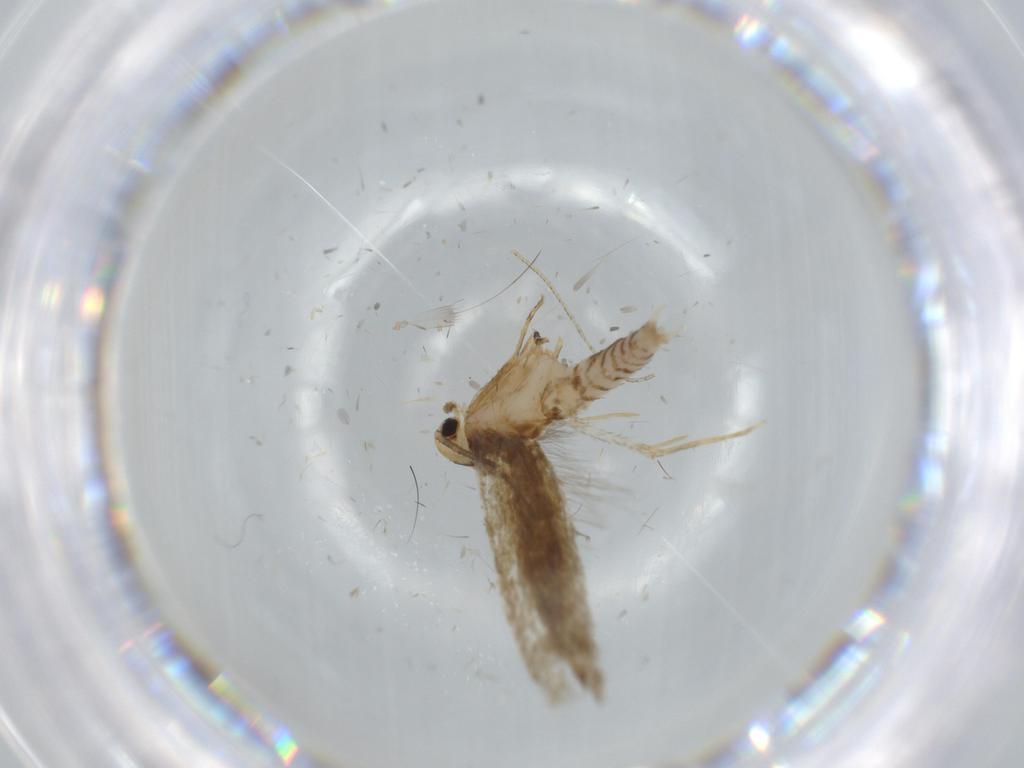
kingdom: Animalia
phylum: Arthropoda
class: Insecta
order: Lepidoptera
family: Tineidae
